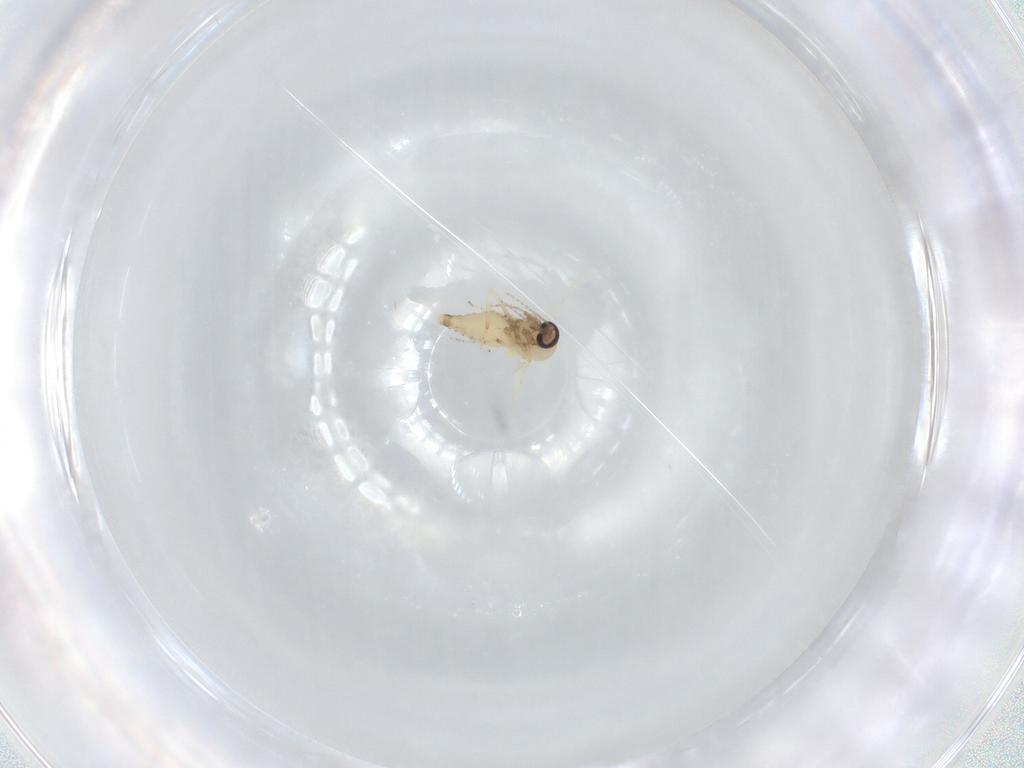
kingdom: Animalia
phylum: Arthropoda
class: Insecta
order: Diptera
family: Ceratopogonidae
